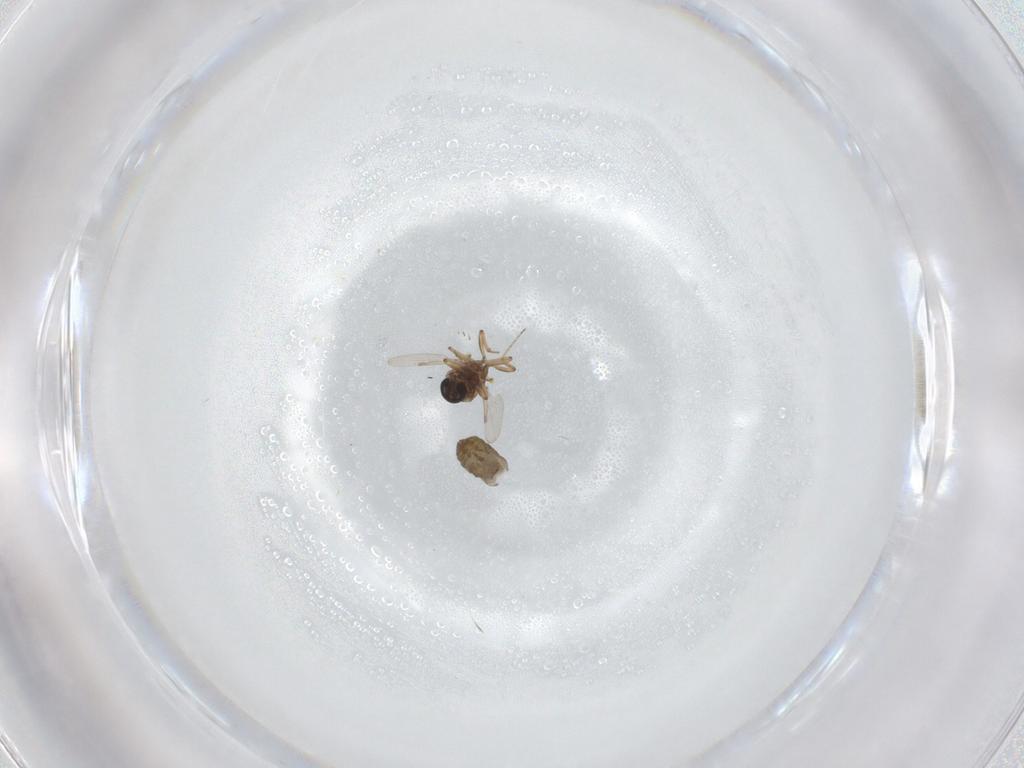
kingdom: Animalia
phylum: Arthropoda
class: Insecta
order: Diptera
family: Ceratopogonidae
